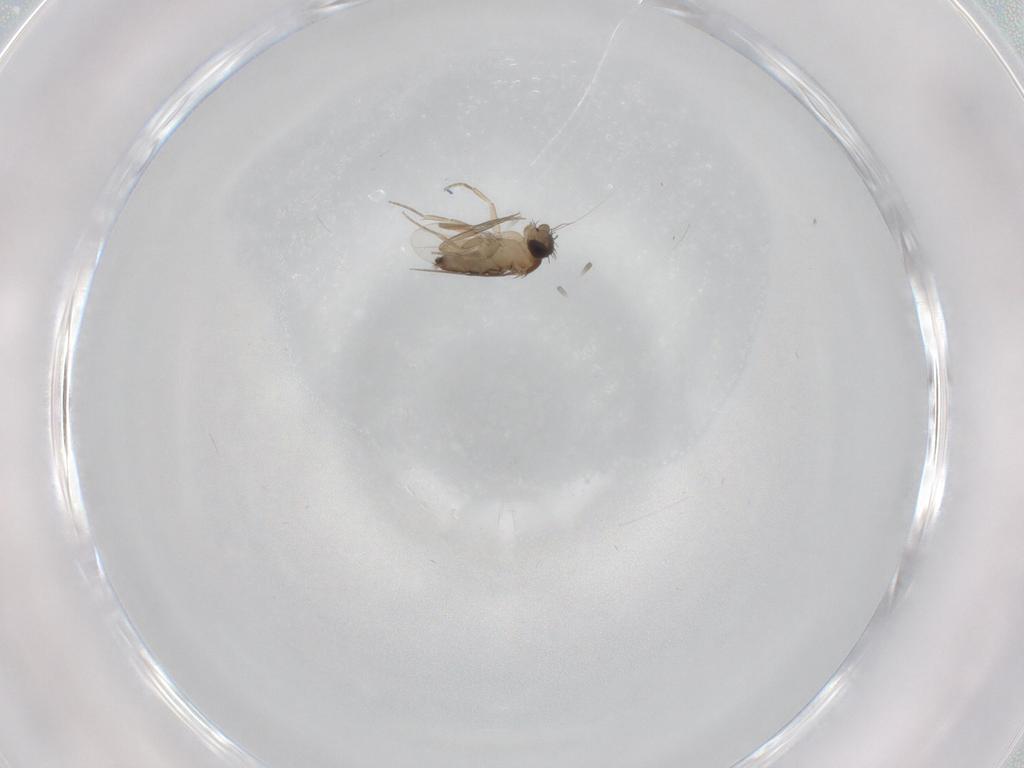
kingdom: Animalia
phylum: Arthropoda
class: Insecta
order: Diptera
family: Phoridae
